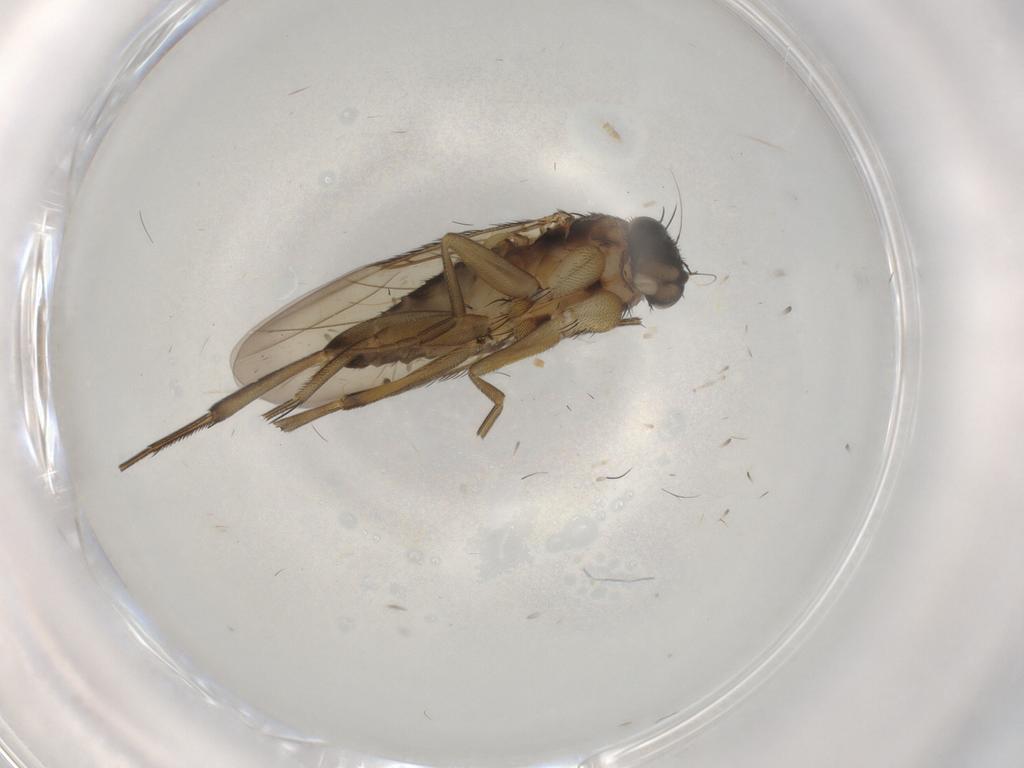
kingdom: Animalia
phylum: Arthropoda
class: Insecta
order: Diptera
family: Phoridae
